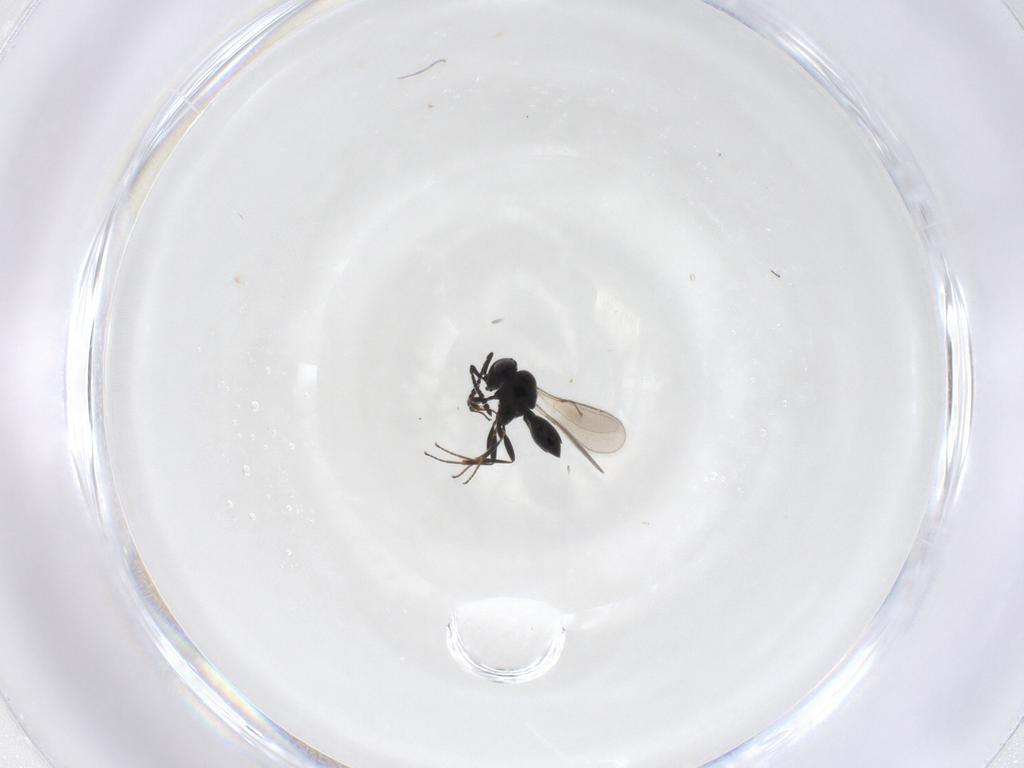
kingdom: Animalia
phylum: Arthropoda
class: Insecta
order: Hymenoptera
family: Scelionidae
